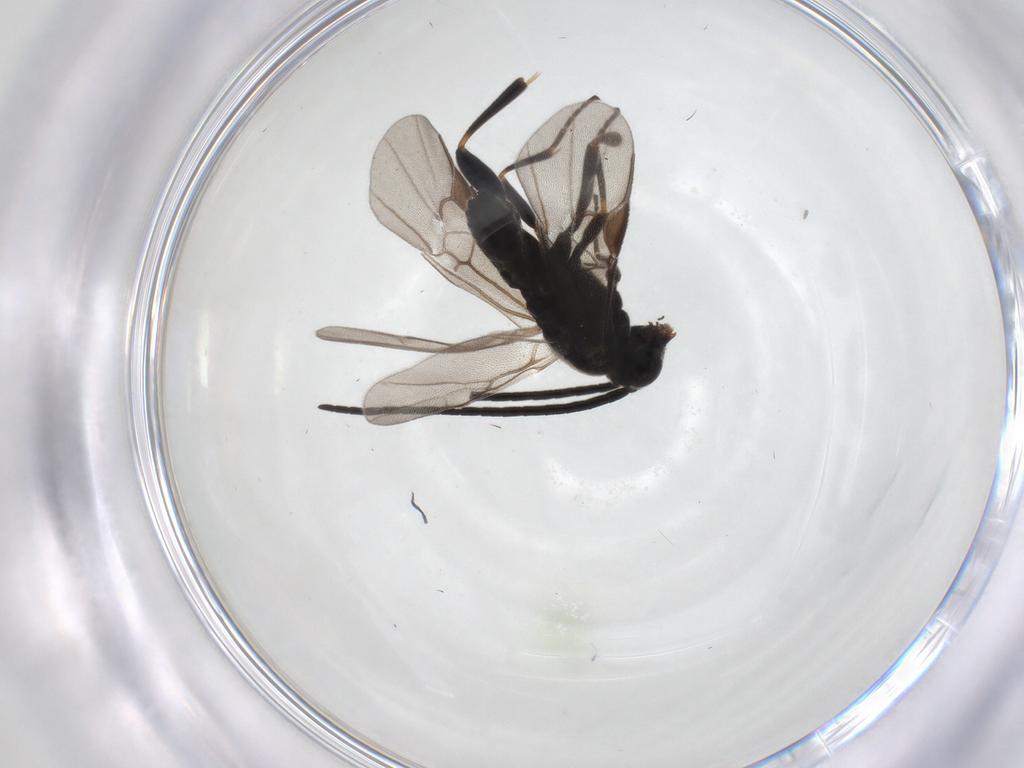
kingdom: Animalia
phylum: Arthropoda
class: Insecta
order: Hymenoptera
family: Braconidae
